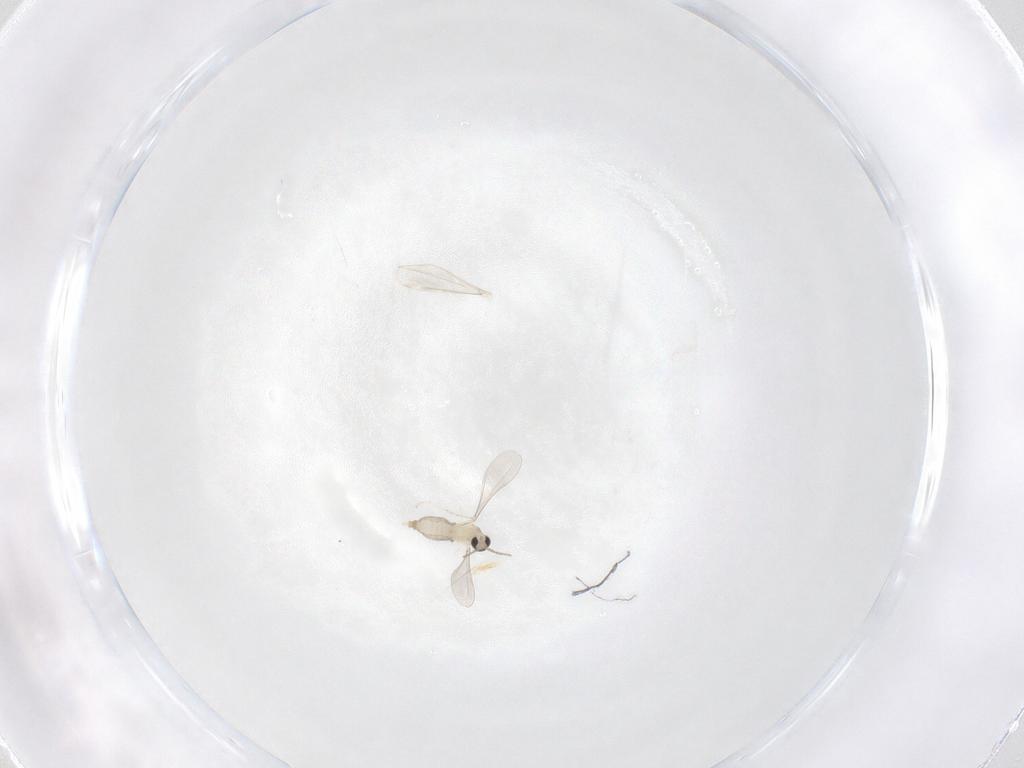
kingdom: Animalia
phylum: Arthropoda
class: Insecta
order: Diptera
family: Cecidomyiidae
